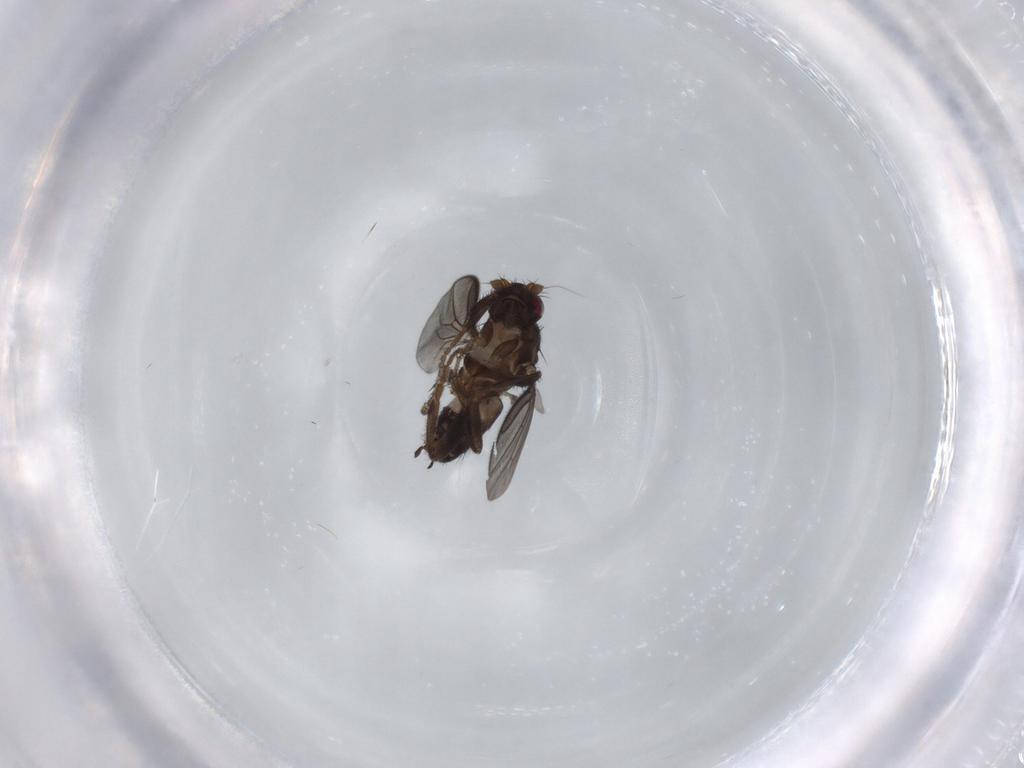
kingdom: Animalia
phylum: Arthropoda
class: Insecta
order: Diptera
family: Sphaeroceridae
